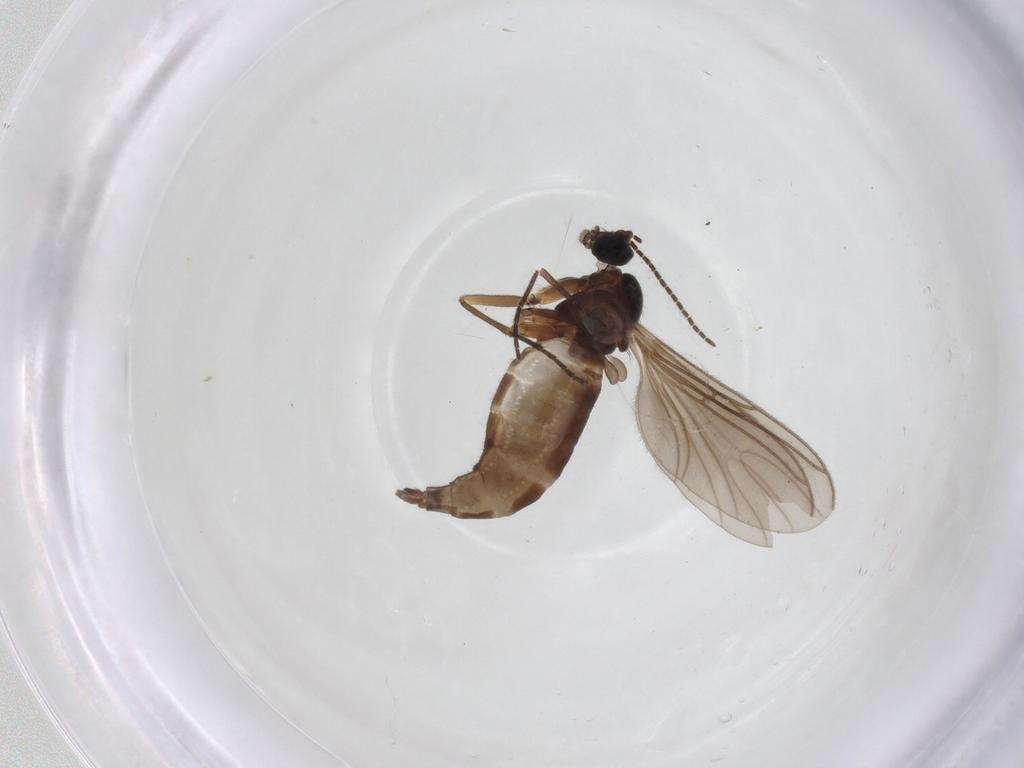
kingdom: Animalia
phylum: Arthropoda
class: Insecta
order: Diptera
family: Sciaridae
